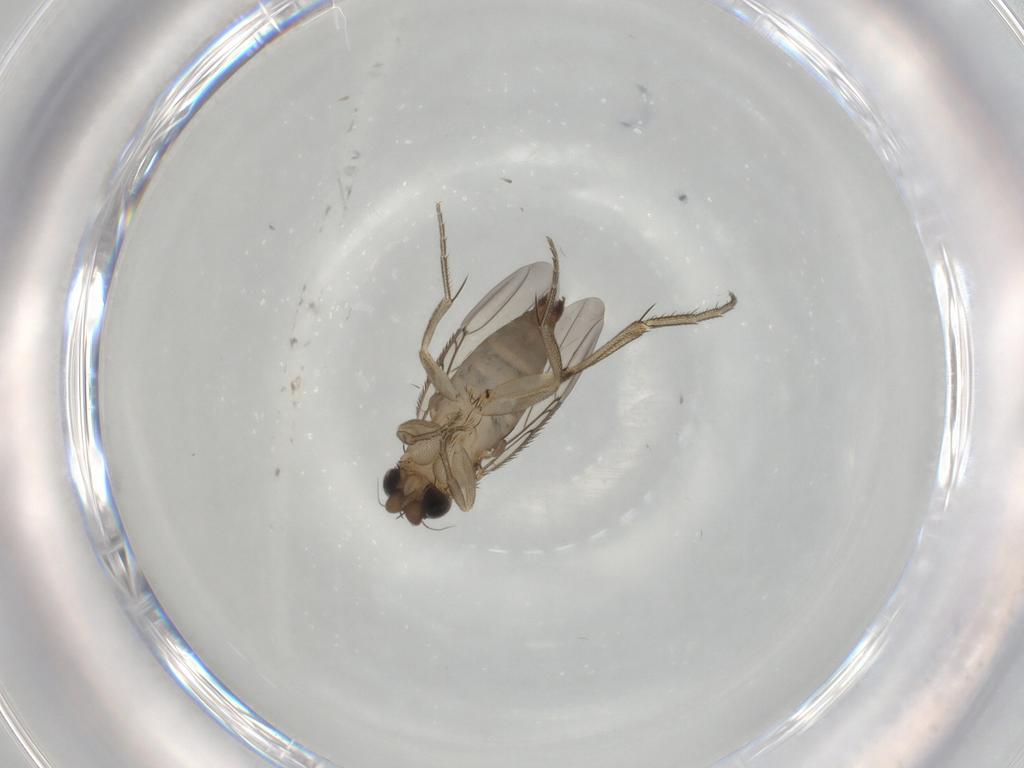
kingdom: Animalia
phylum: Arthropoda
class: Insecta
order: Diptera
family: Phoridae
